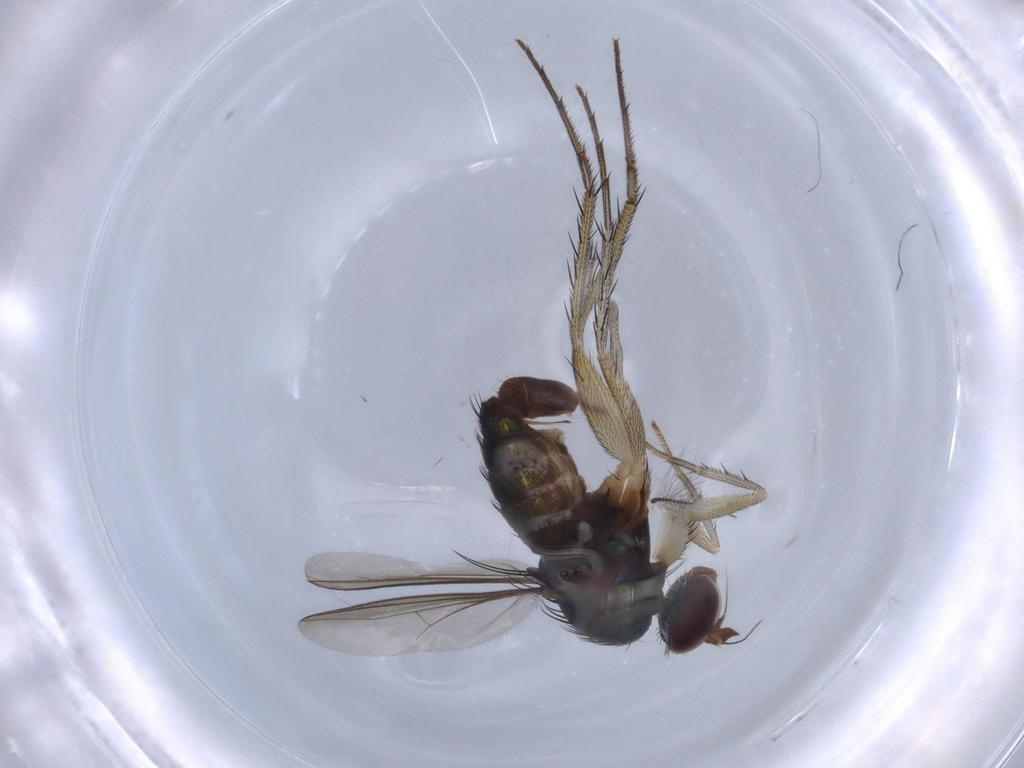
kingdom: Animalia
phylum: Arthropoda
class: Insecta
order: Diptera
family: Dolichopodidae
